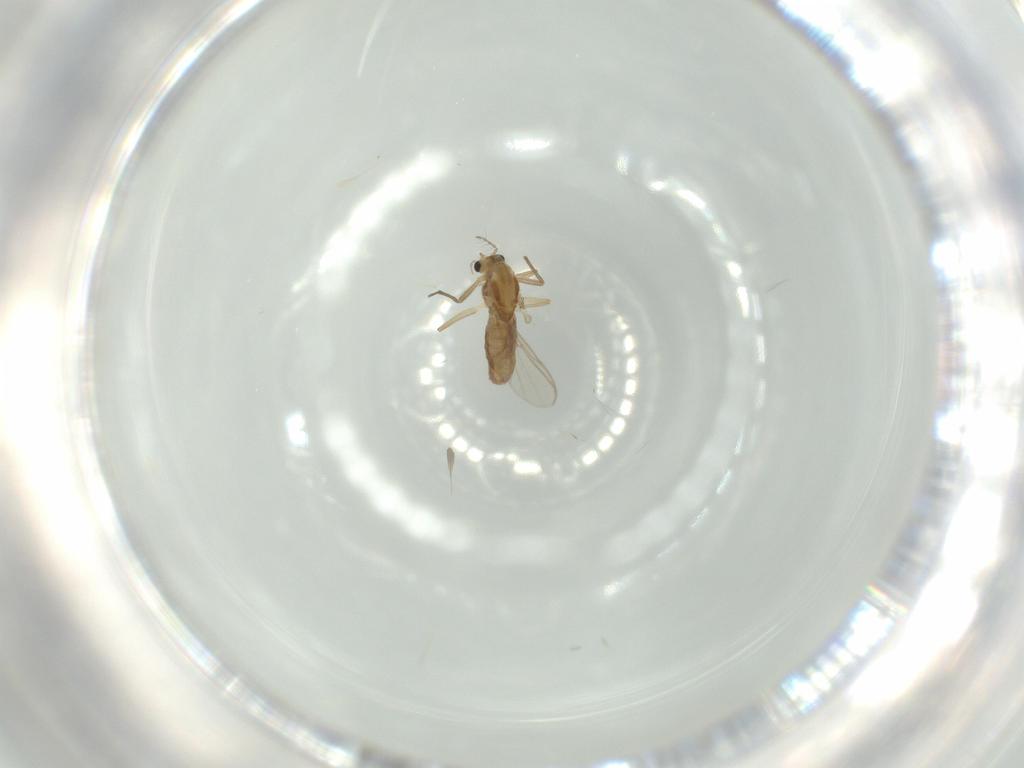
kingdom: Animalia
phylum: Arthropoda
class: Insecta
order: Diptera
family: Chironomidae
